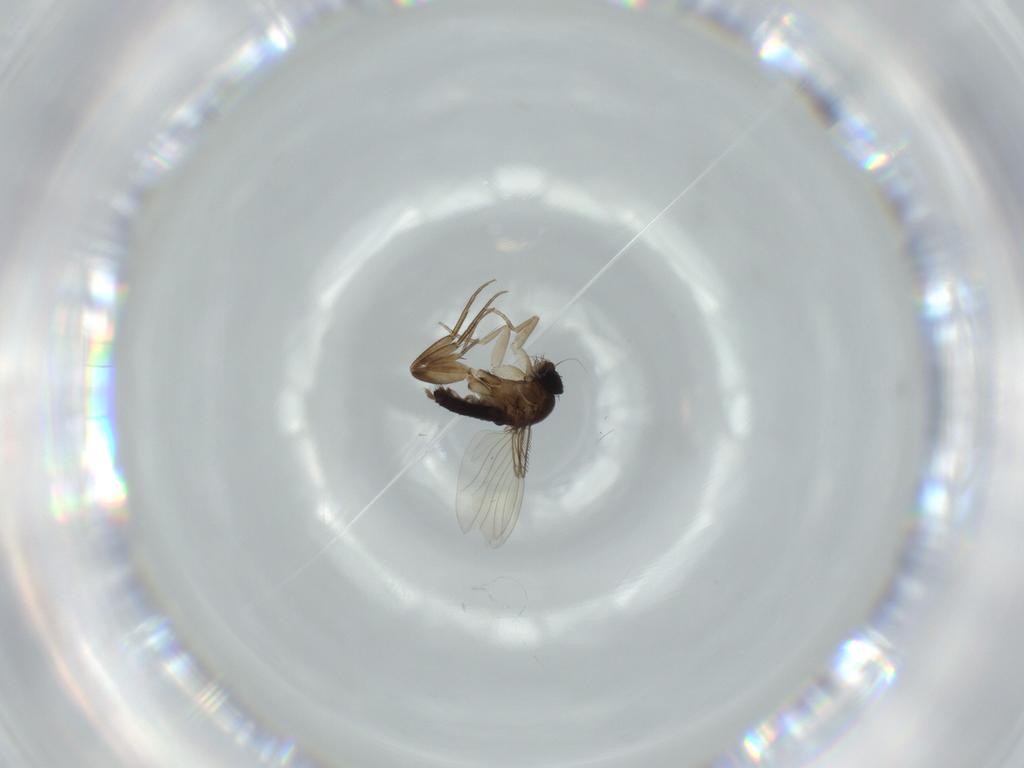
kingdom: Animalia
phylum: Arthropoda
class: Insecta
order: Diptera
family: Phoridae
